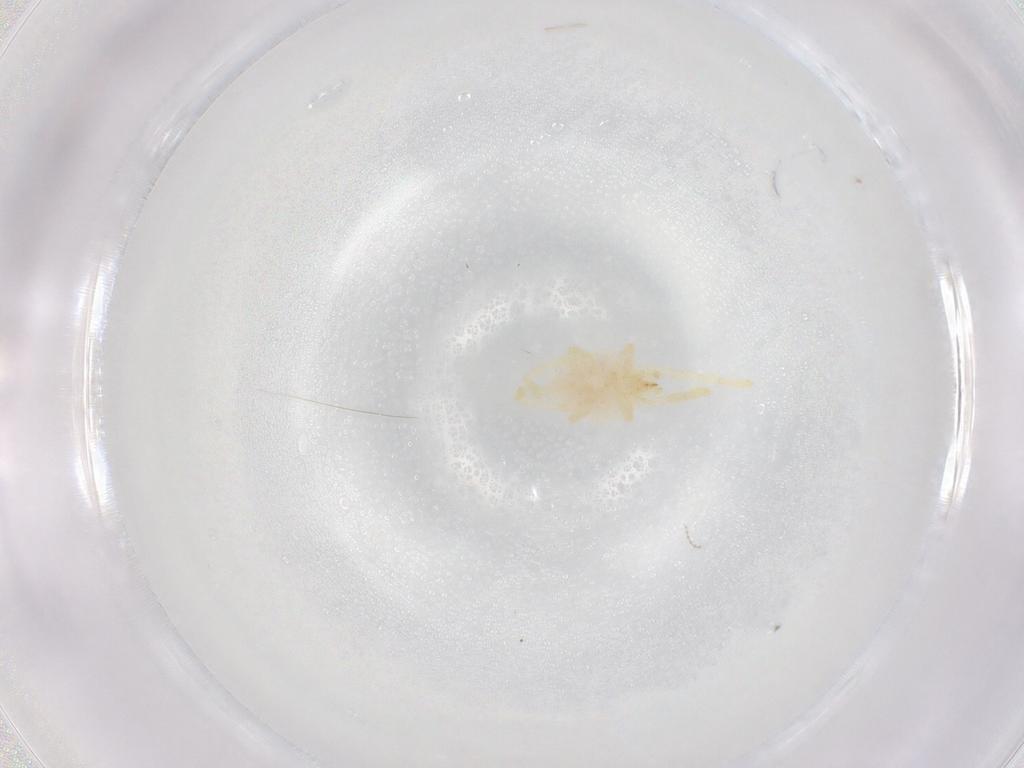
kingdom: Animalia
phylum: Arthropoda
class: Arachnida
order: Trombidiformes
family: Erythraeidae
